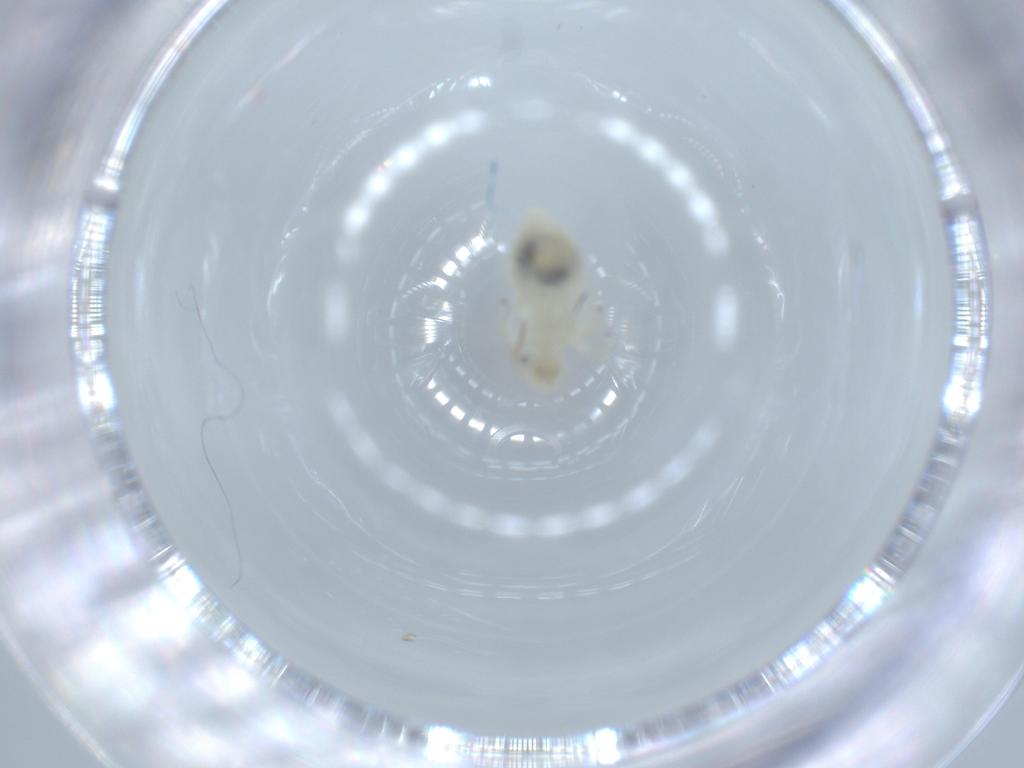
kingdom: Animalia
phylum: Arthropoda
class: Insecta
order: Psocodea
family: Caeciliusidae
